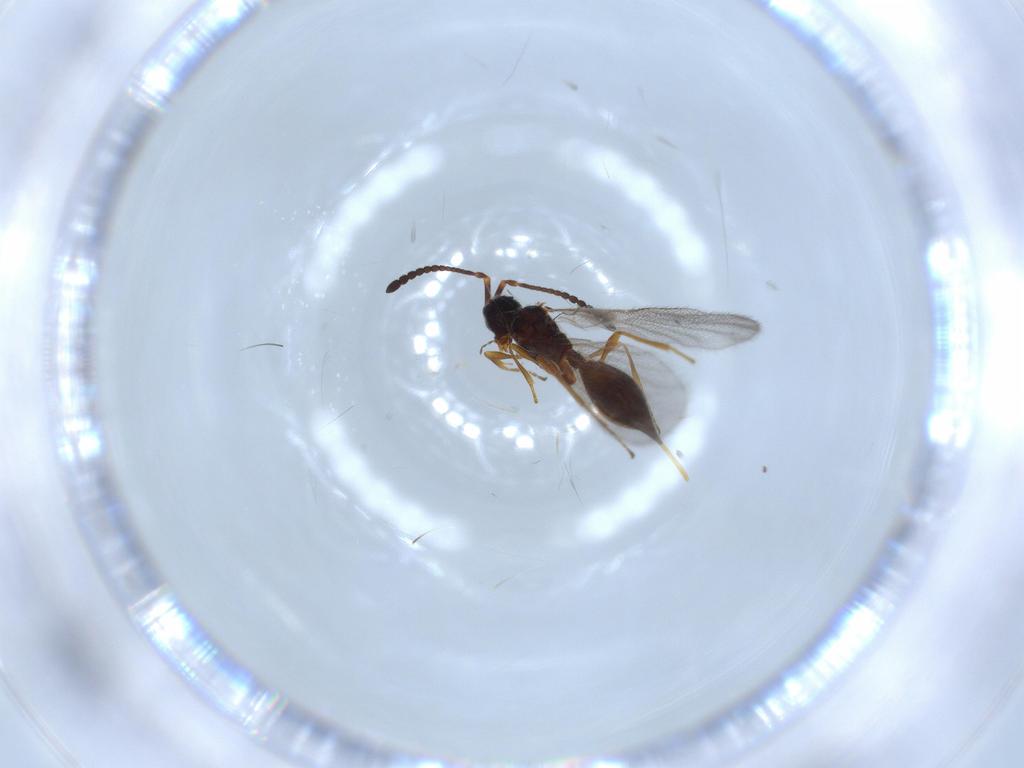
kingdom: Animalia
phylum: Arthropoda
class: Insecta
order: Hymenoptera
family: Diapriidae
